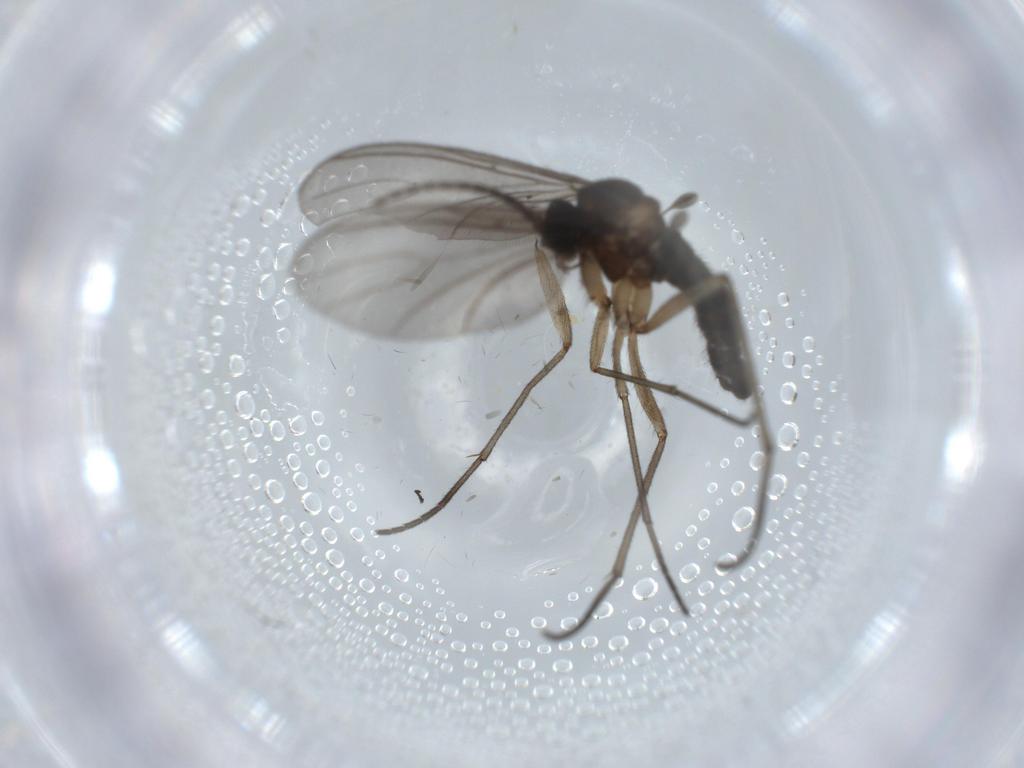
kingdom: Animalia
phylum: Arthropoda
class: Insecta
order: Diptera
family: Sciaridae
